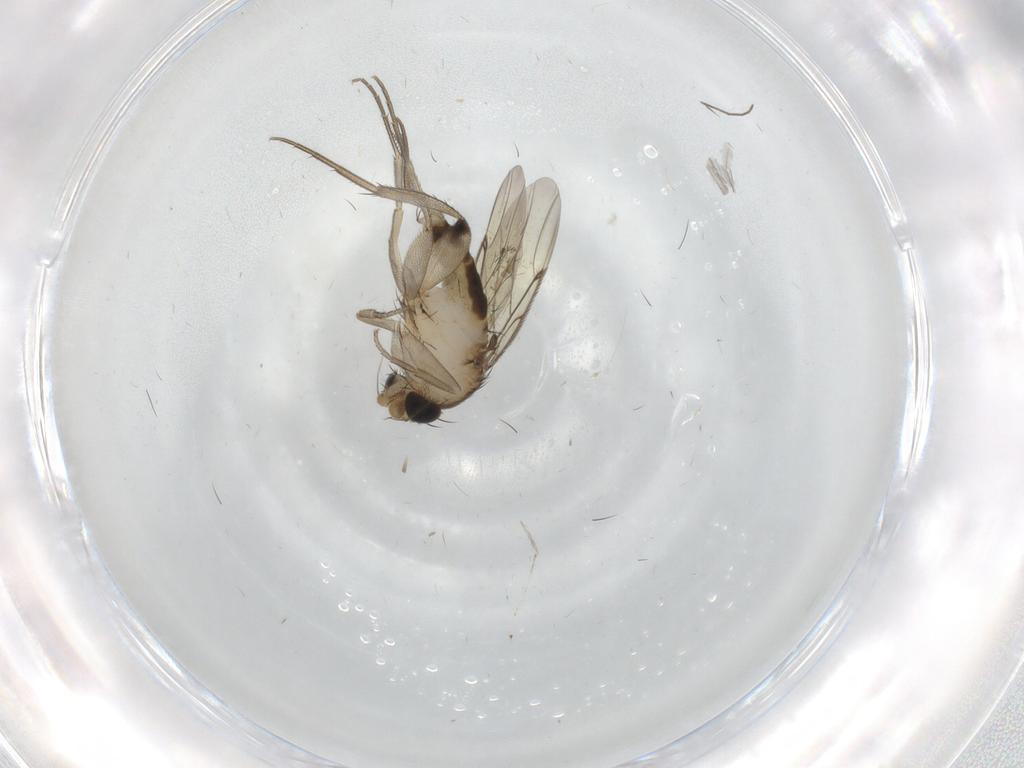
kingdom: Animalia
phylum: Arthropoda
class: Insecta
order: Diptera
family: Phoridae
